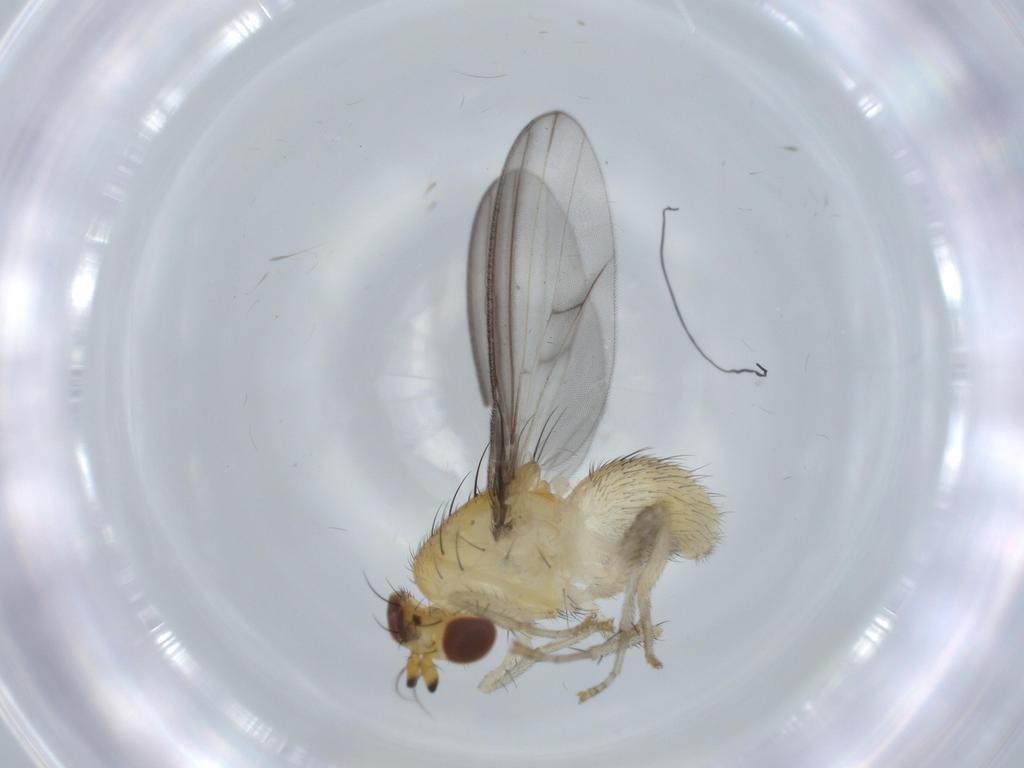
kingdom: Animalia
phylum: Arthropoda
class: Insecta
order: Diptera
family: Lauxaniidae
